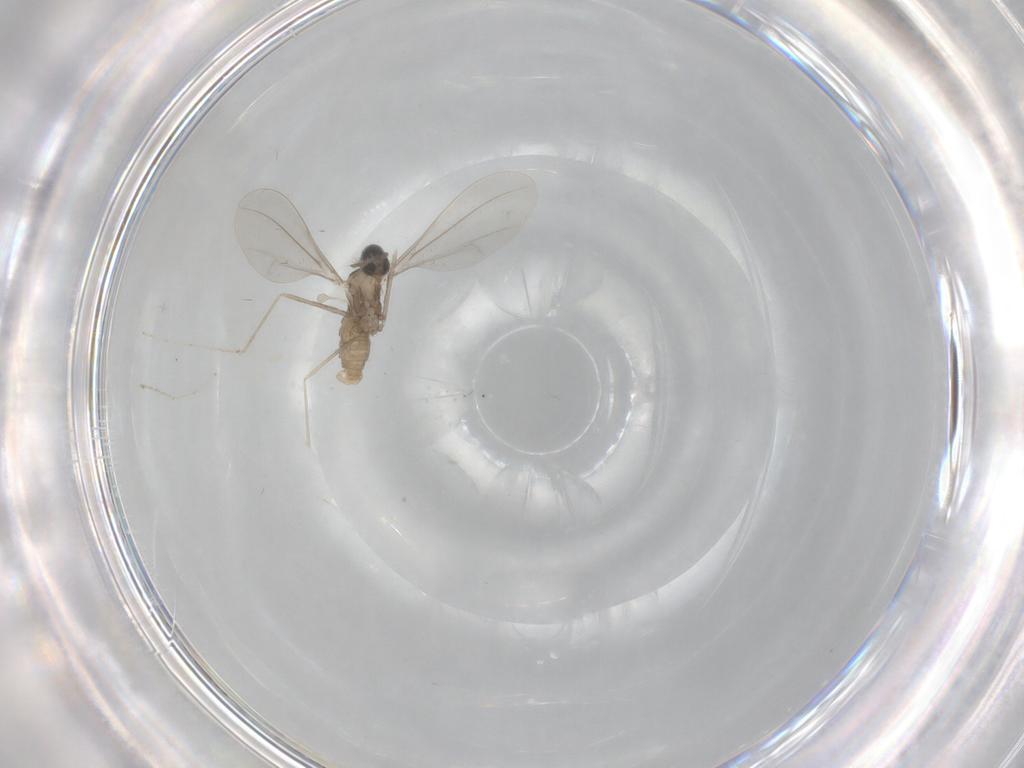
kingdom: Animalia
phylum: Arthropoda
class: Insecta
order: Diptera
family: Cecidomyiidae
